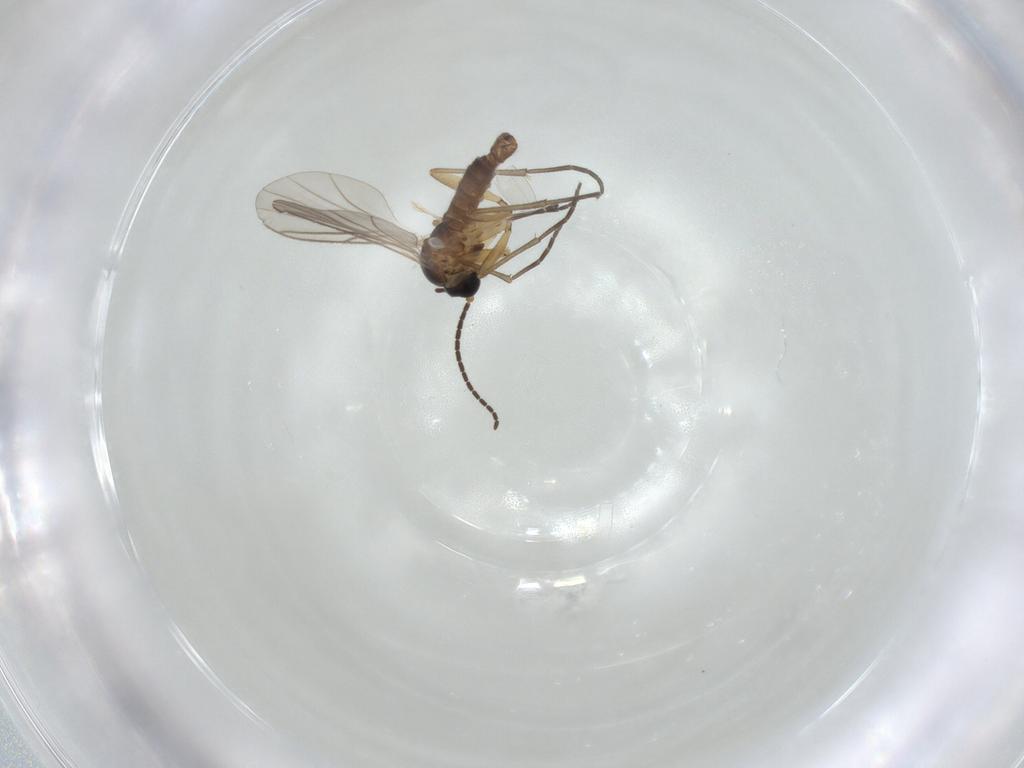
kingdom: Animalia
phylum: Arthropoda
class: Insecta
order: Diptera
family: Sciaridae
